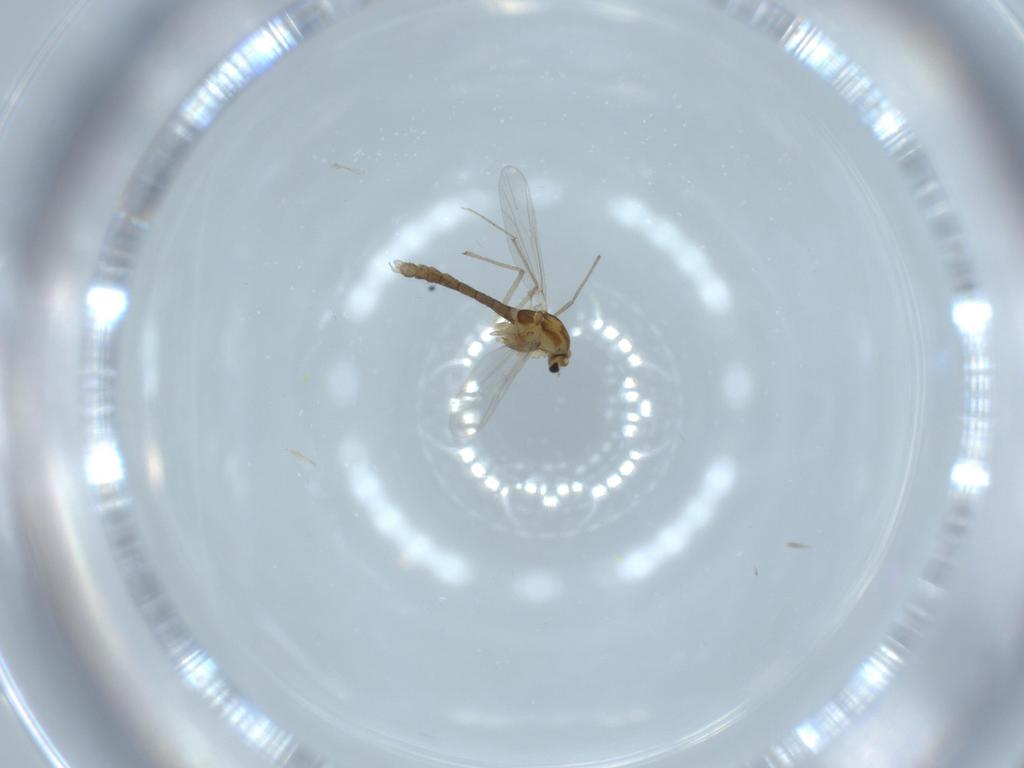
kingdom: Animalia
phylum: Arthropoda
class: Insecta
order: Diptera
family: Chironomidae
